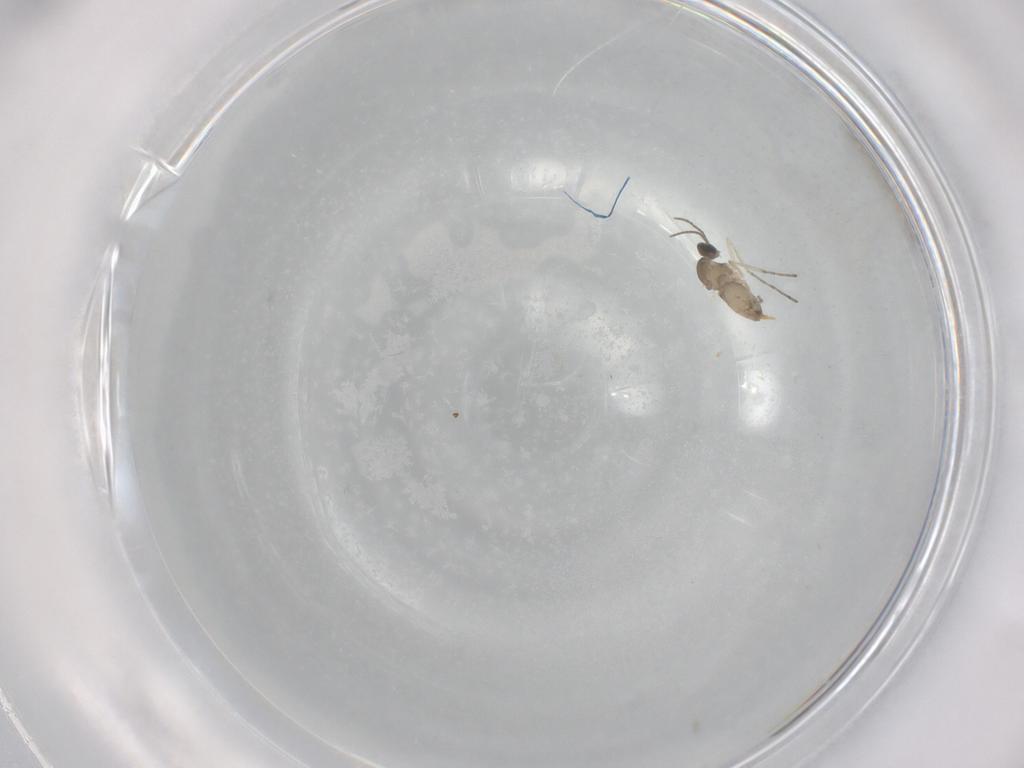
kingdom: Animalia
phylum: Arthropoda
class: Insecta
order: Diptera
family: Cecidomyiidae
